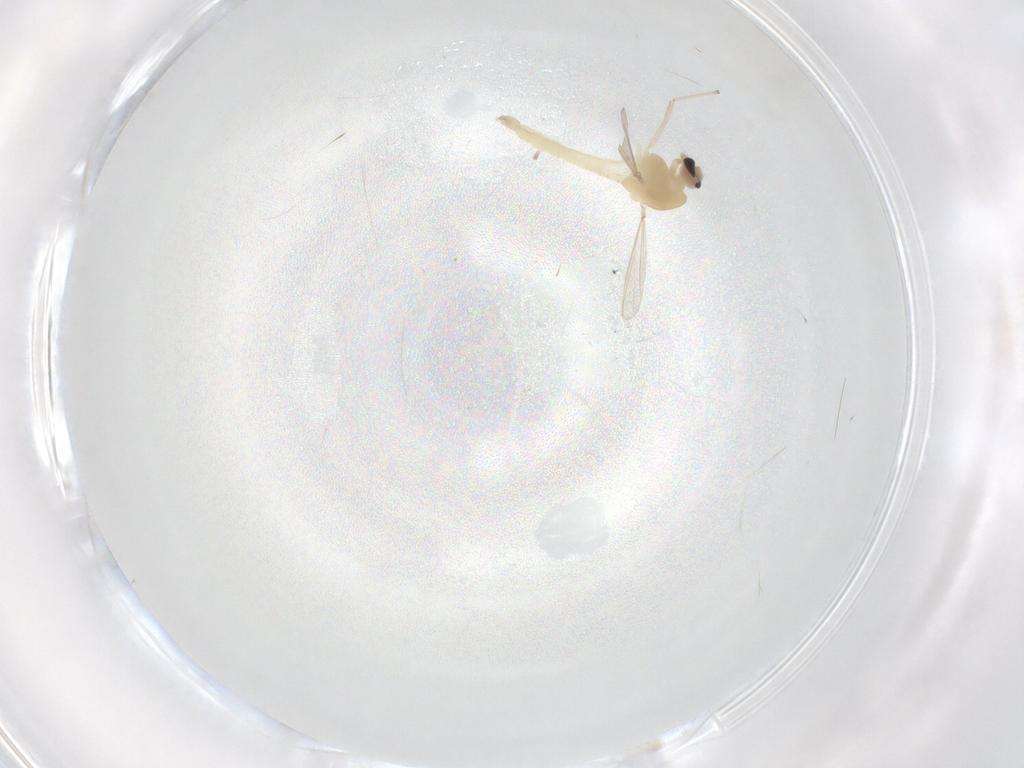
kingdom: Animalia
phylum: Arthropoda
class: Insecta
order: Diptera
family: Chironomidae
